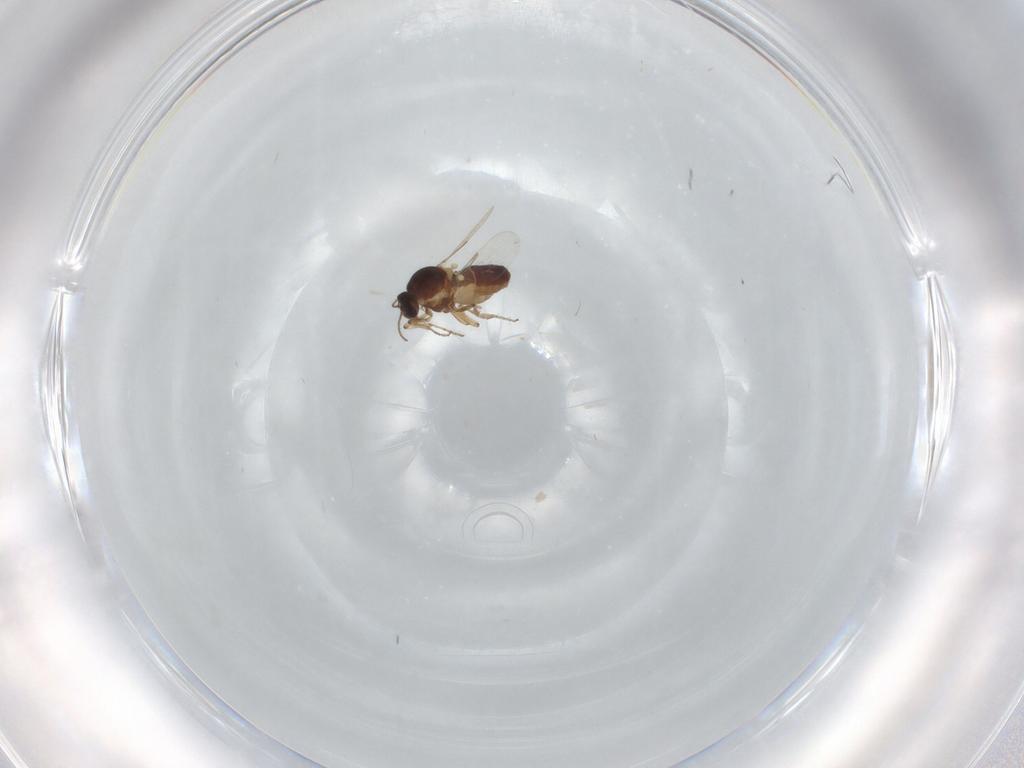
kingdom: Animalia
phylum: Arthropoda
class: Insecta
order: Diptera
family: Ceratopogonidae
